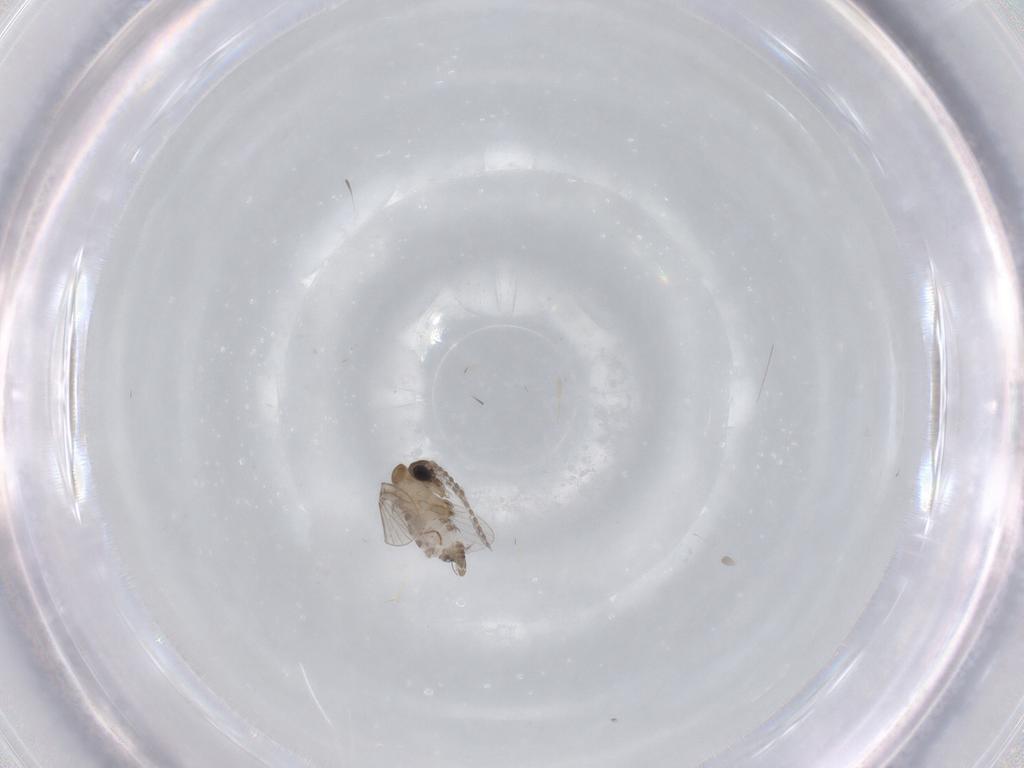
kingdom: Animalia
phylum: Arthropoda
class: Insecta
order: Diptera
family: Psychodidae
